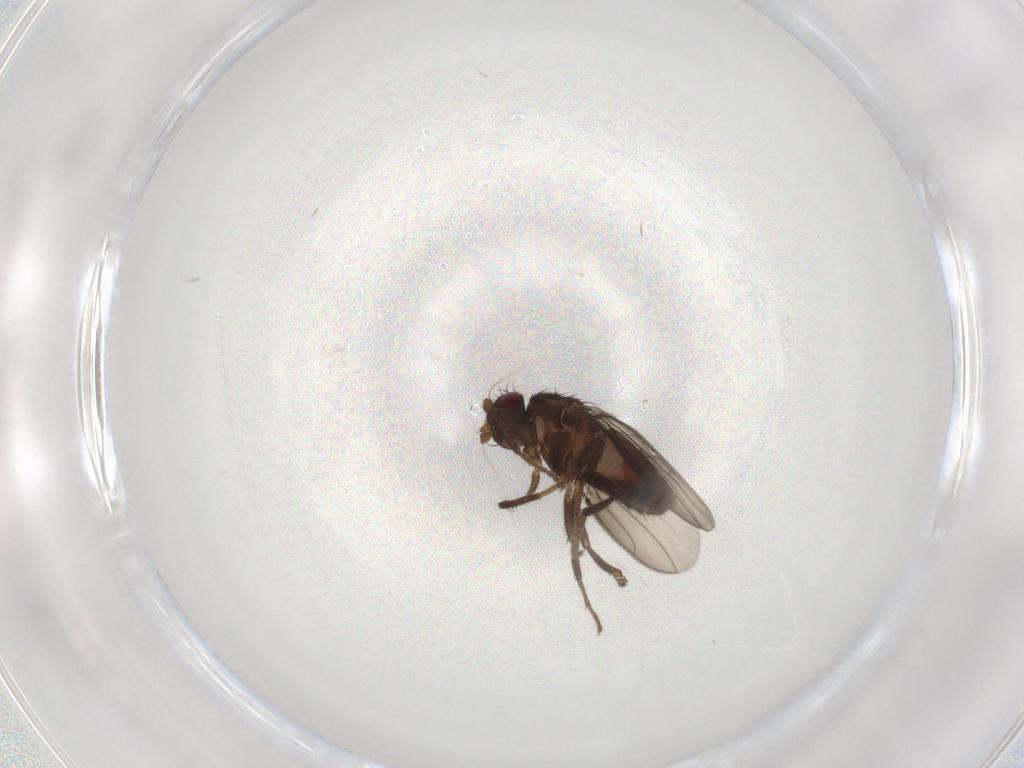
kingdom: Animalia
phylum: Arthropoda
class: Insecta
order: Diptera
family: Sphaeroceridae
